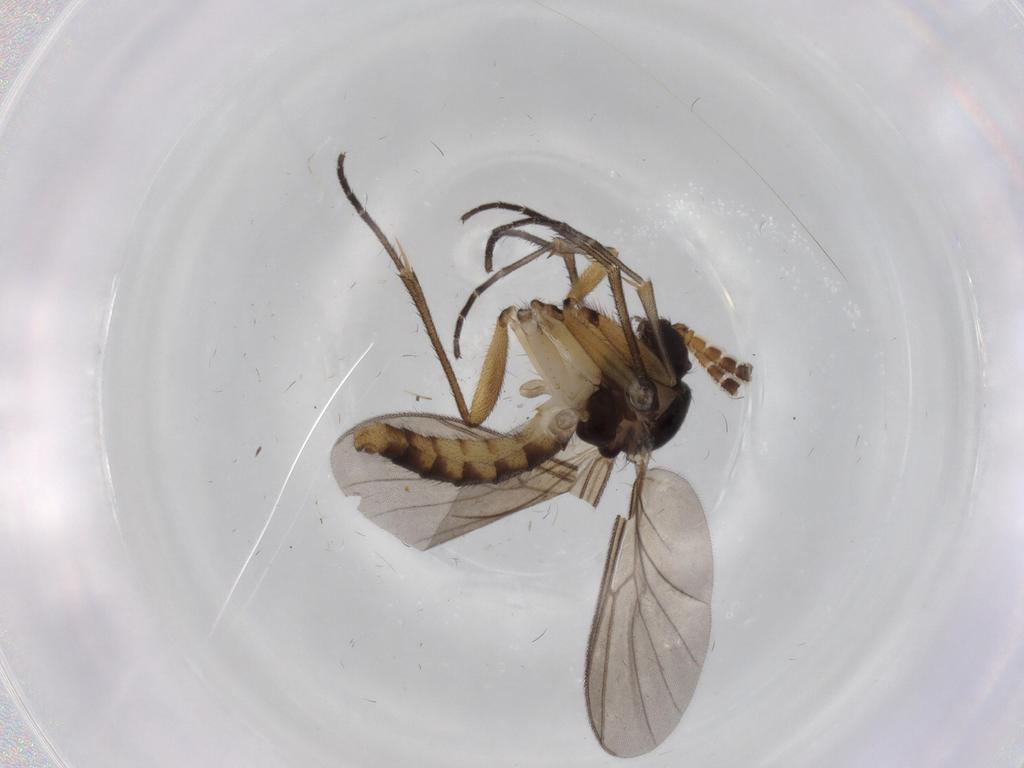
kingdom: Animalia
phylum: Arthropoda
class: Insecta
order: Diptera
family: Mycetophilidae
